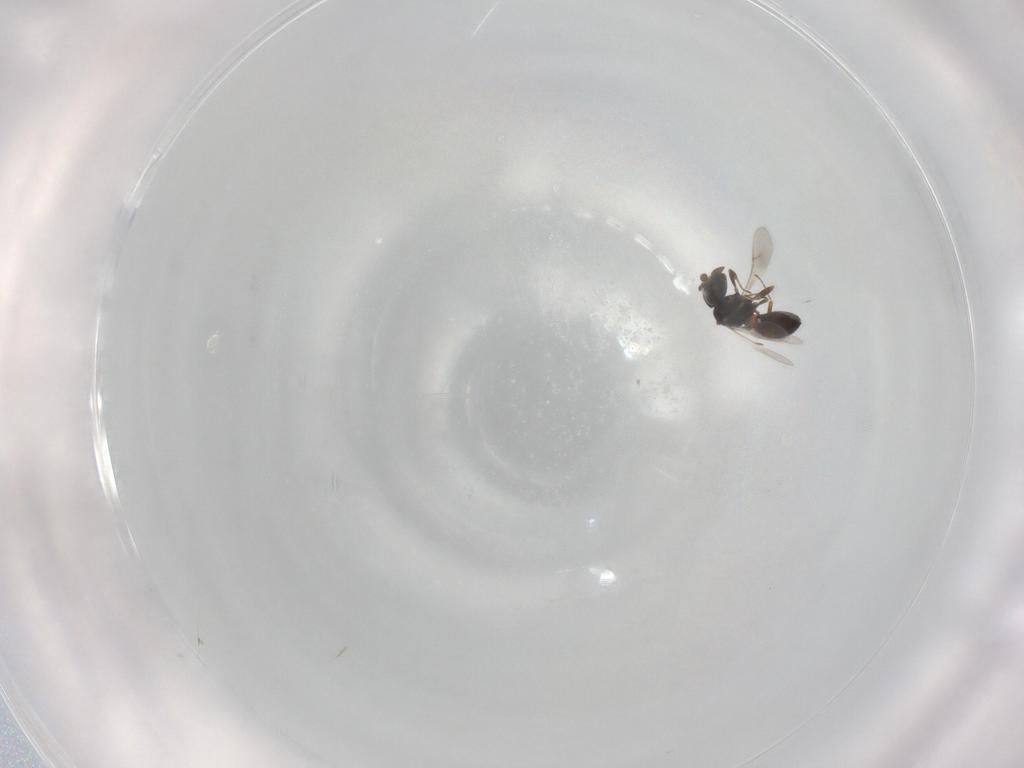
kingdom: Animalia
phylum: Arthropoda
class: Insecta
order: Hymenoptera
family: Scelionidae
